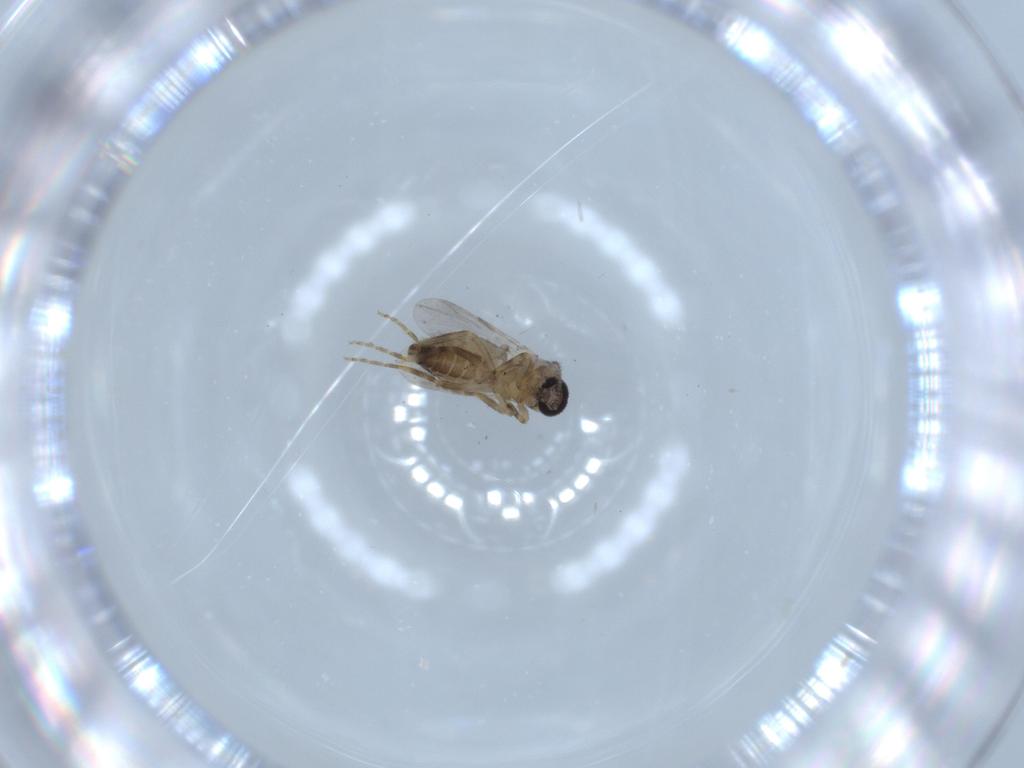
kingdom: Animalia
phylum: Arthropoda
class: Insecta
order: Diptera
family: Ceratopogonidae
